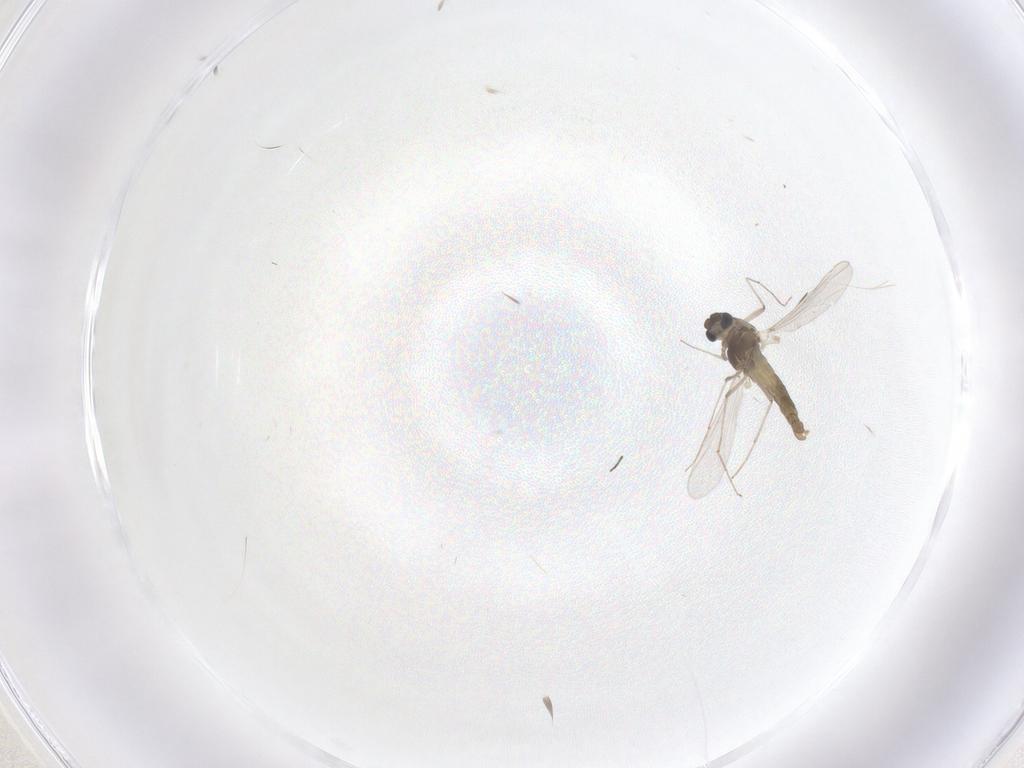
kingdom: Animalia
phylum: Arthropoda
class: Insecta
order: Diptera
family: Chironomidae
